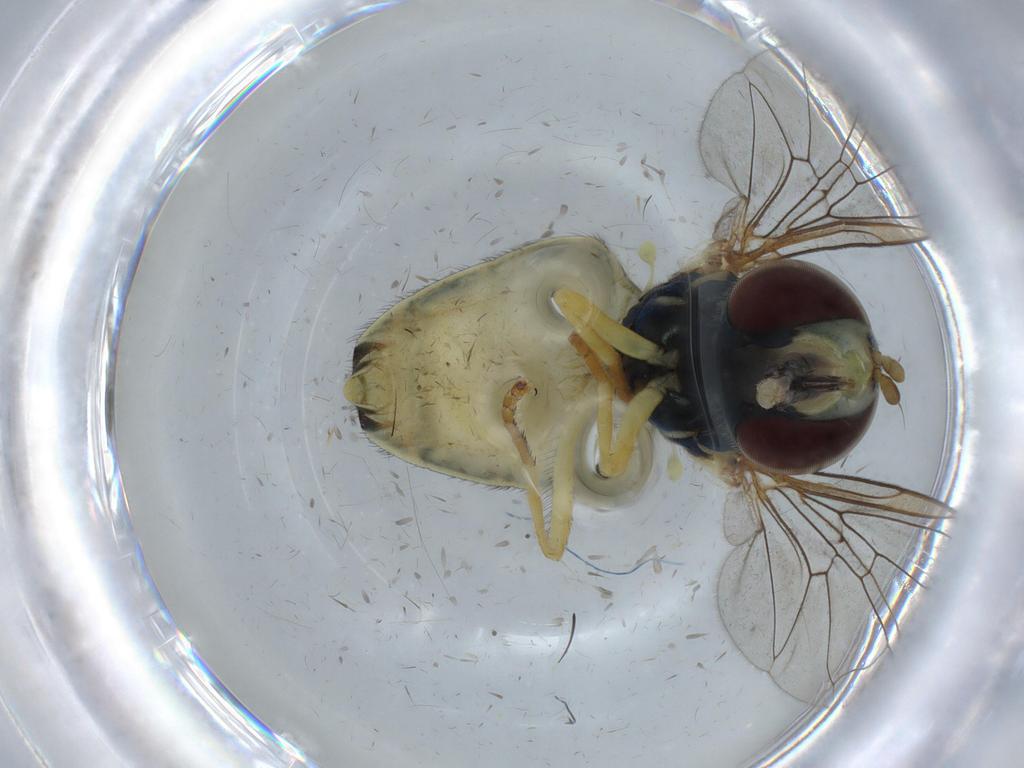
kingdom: Animalia
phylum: Arthropoda
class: Insecta
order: Diptera
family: Syrphidae
